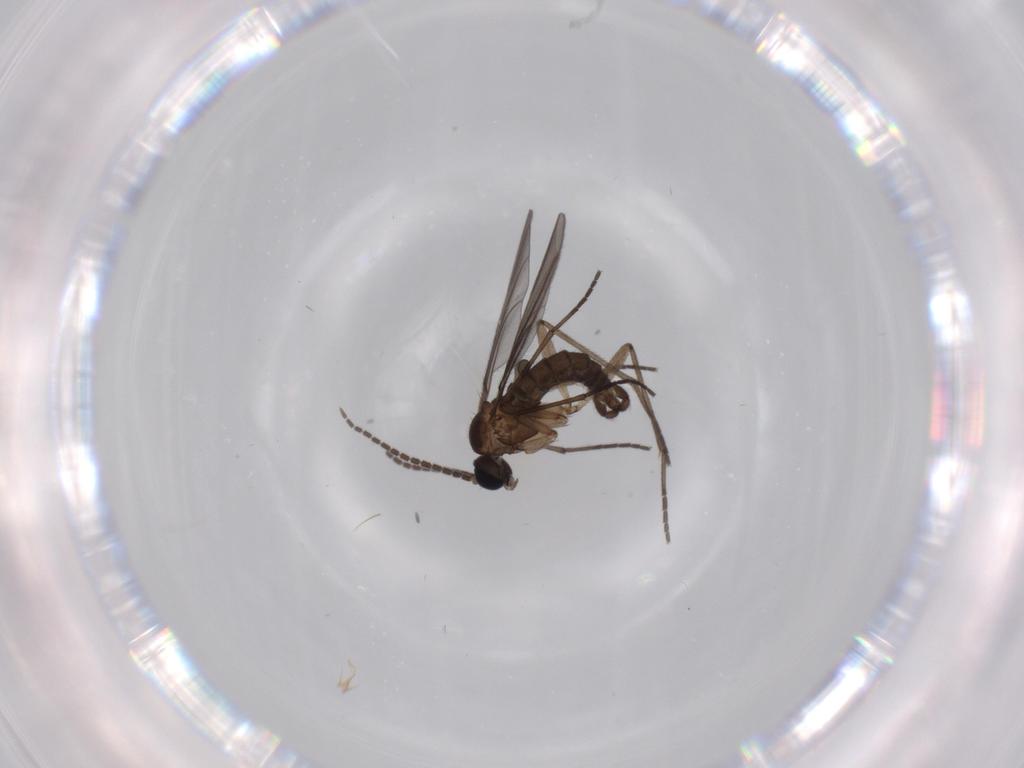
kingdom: Animalia
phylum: Arthropoda
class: Insecta
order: Diptera
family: Sciaridae
